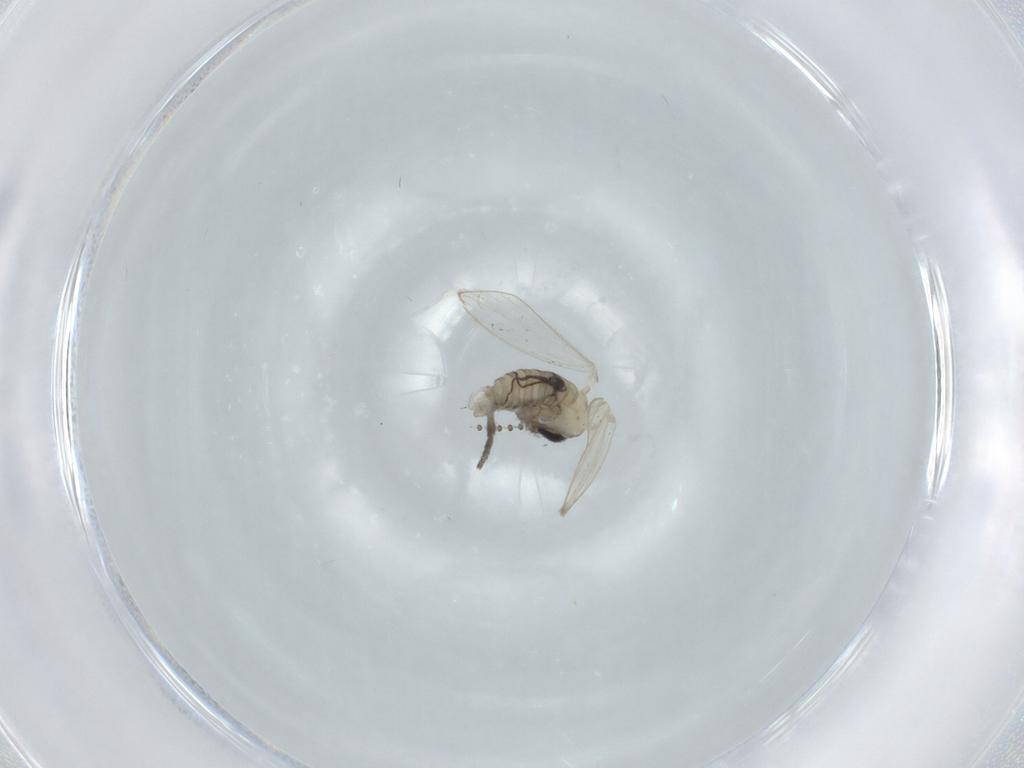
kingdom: Animalia
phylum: Arthropoda
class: Insecta
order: Diptera
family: Psychodidae
